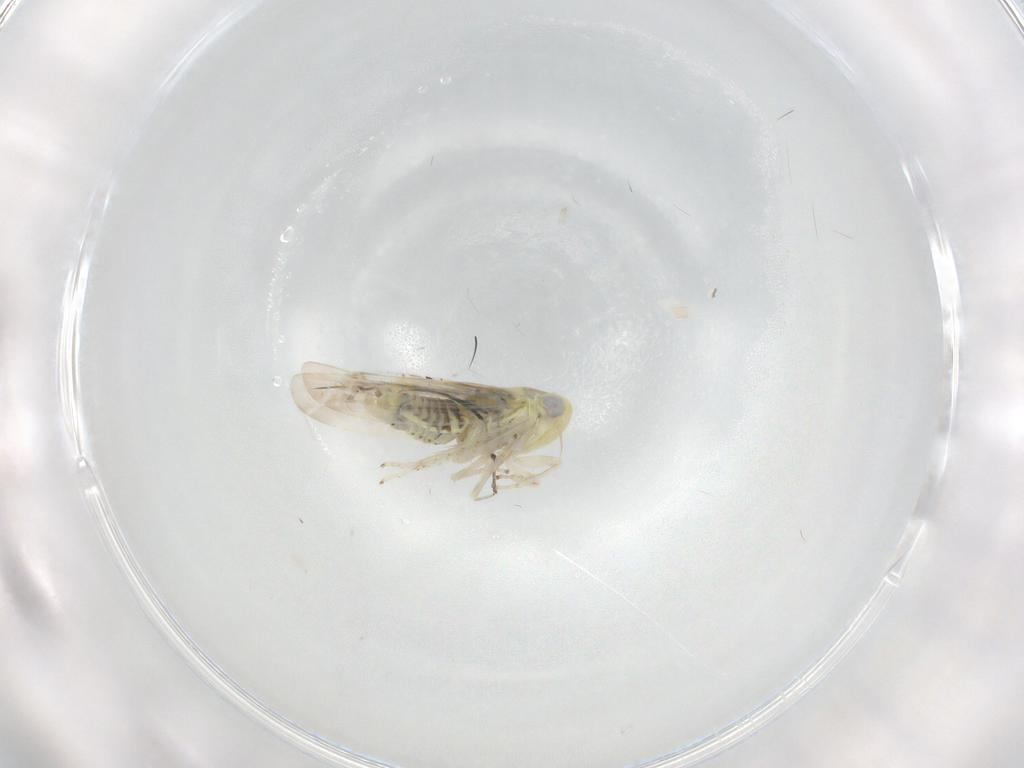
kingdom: Animalia
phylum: Arthropoda
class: Insecta
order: Hemiptera
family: Cicadellidae
